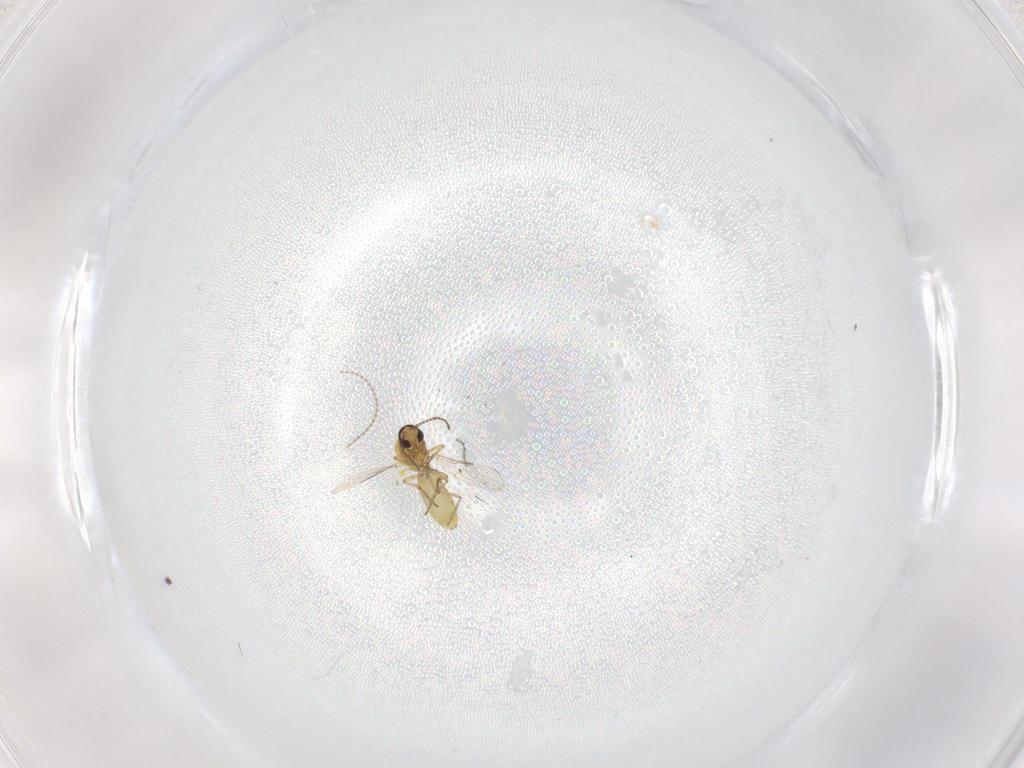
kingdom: Animalia
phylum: Arthropoda
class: Insecta
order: Diptera
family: Ceratopogonidae
